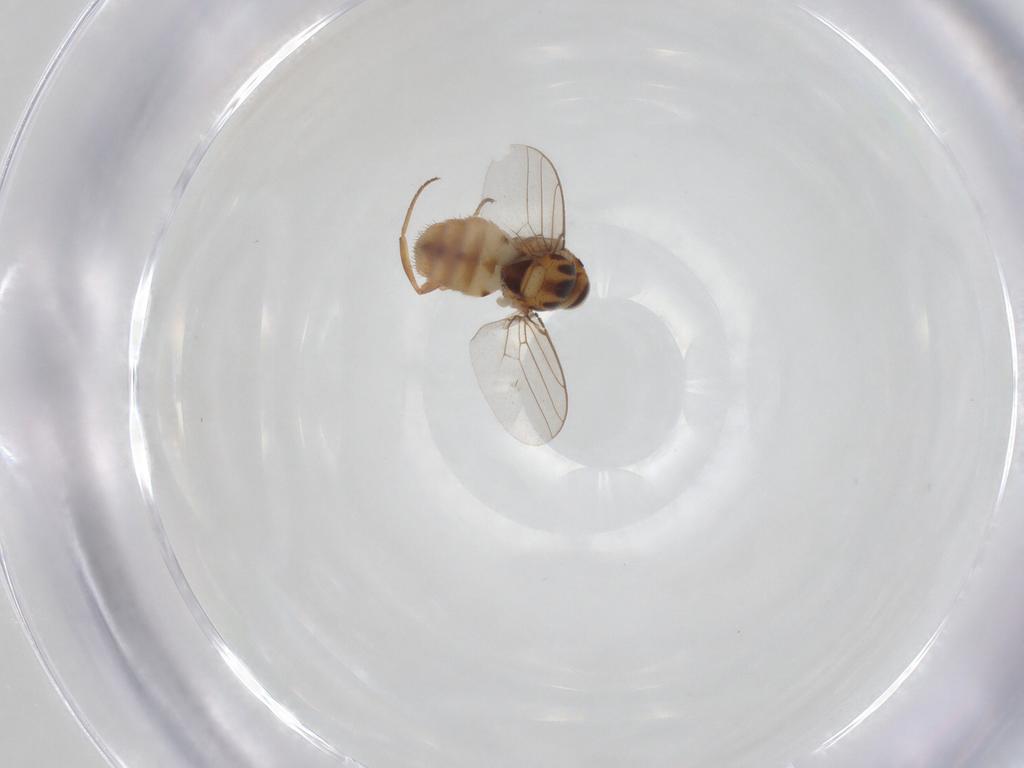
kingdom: Animalia
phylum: Arthropoda
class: Insecta
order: Diptera
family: Chloropidae
